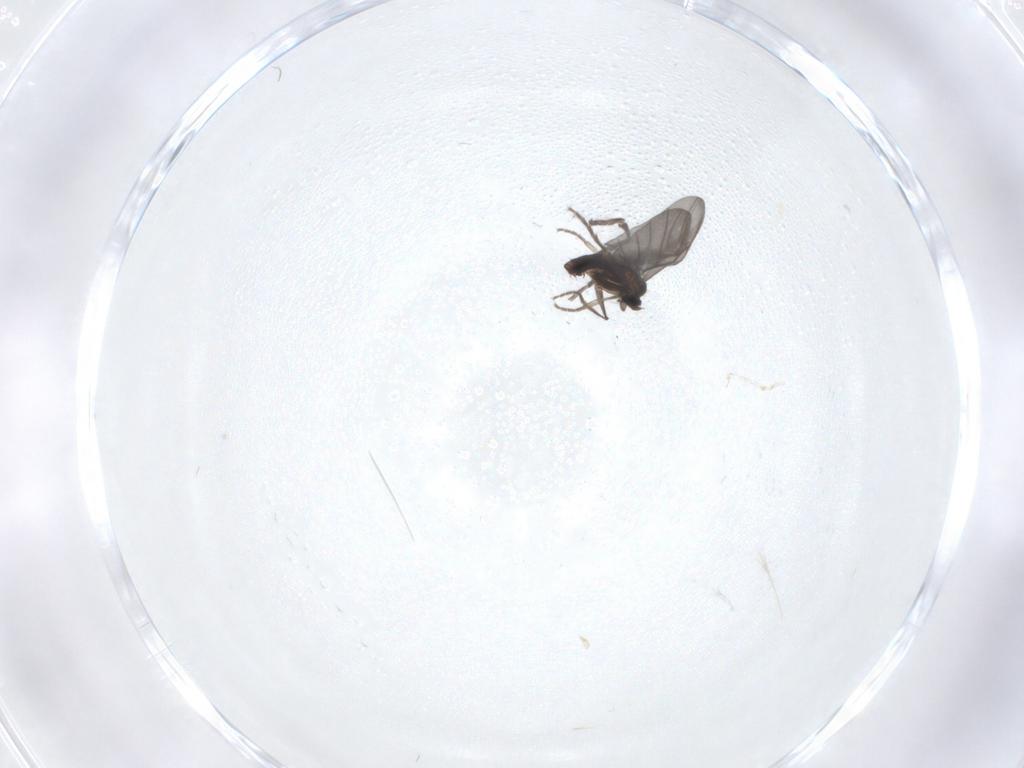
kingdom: Animalia
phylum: Arthropoda
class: Insecta
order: Diptera
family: Phoridae
